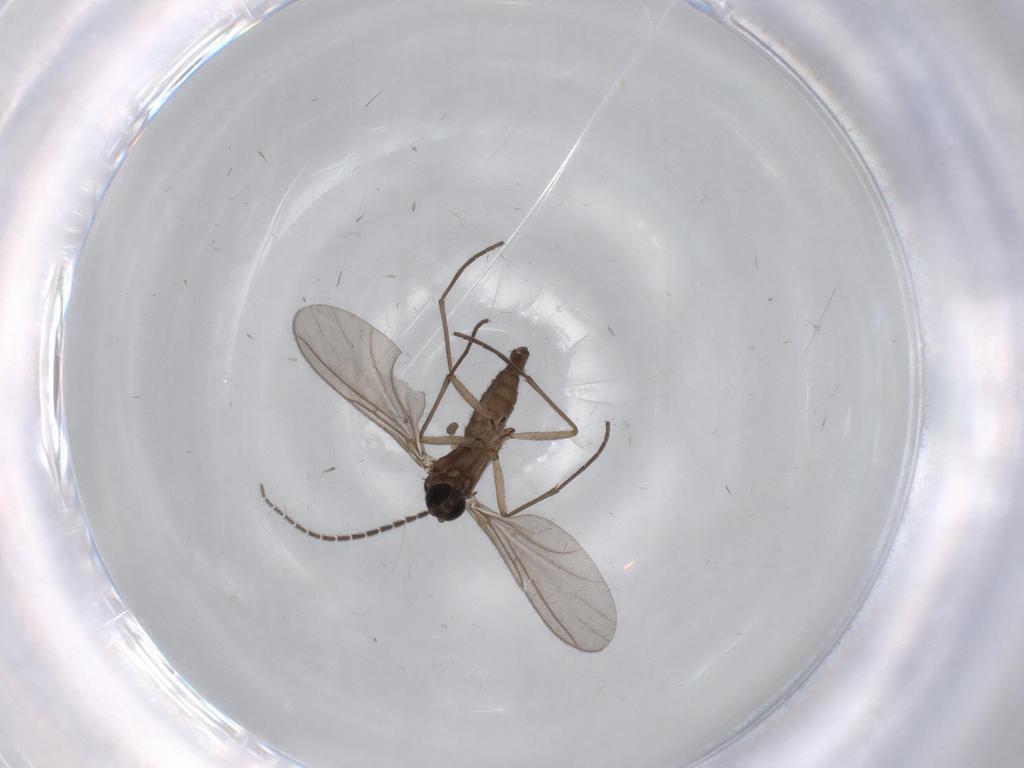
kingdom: Animalia
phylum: Arthropoda
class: Insecta
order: Diptera
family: Sciaridae
